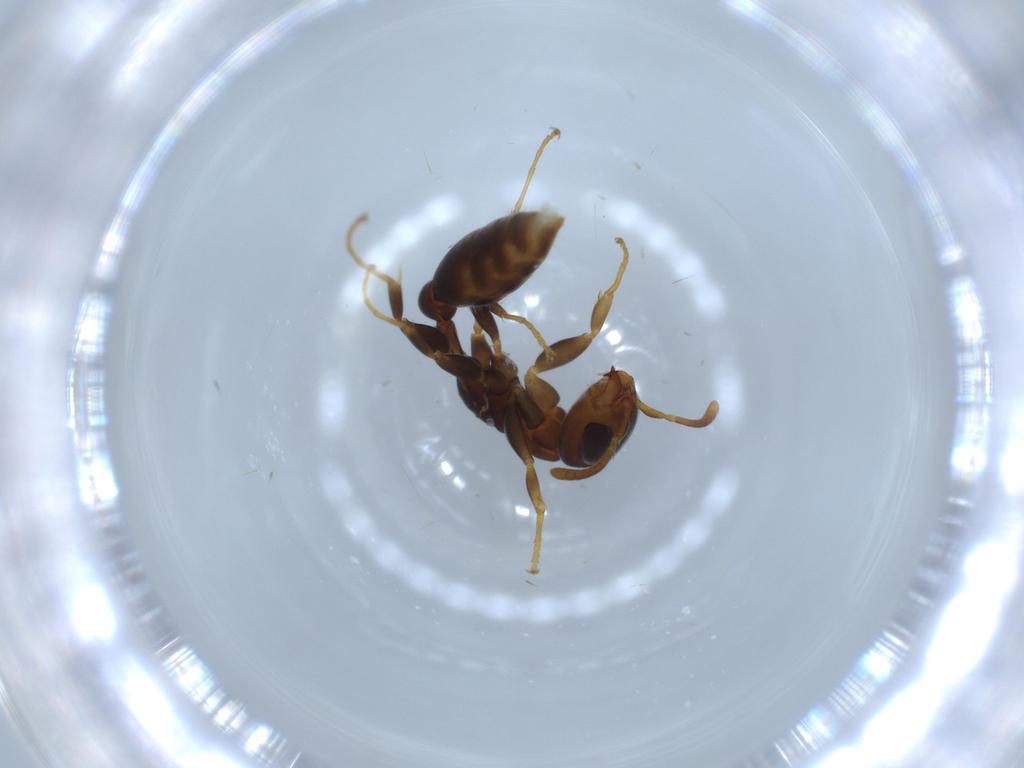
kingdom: Animalia
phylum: Arthropoda
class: Insecta
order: Hymenoptera
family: Formicidae
